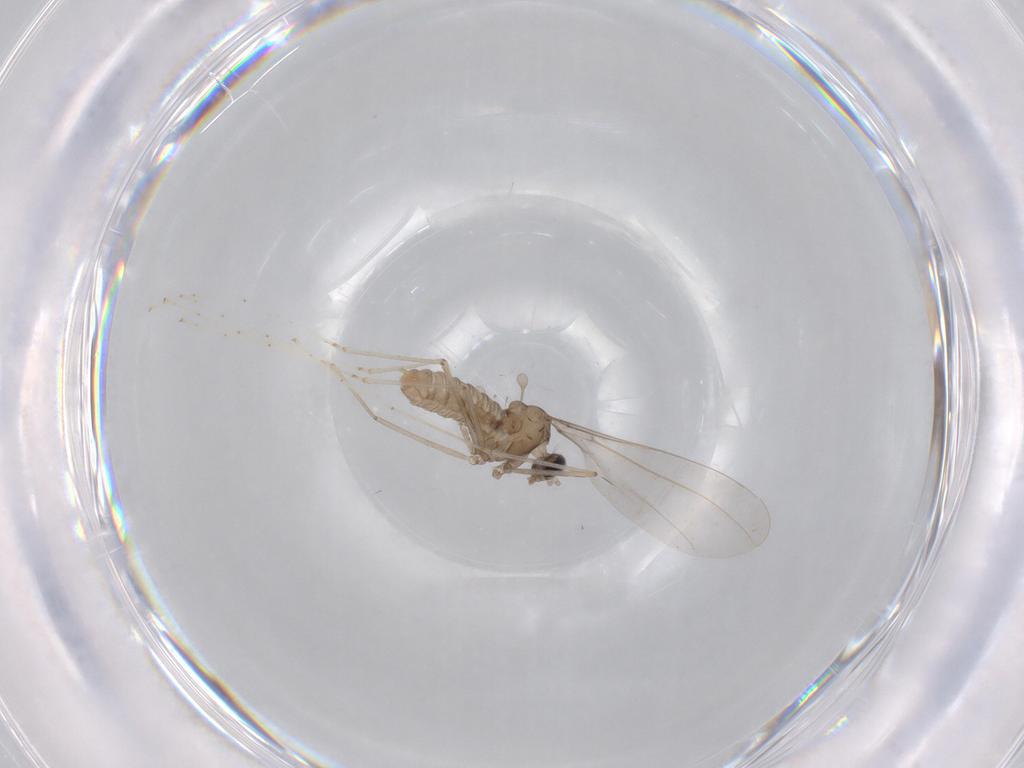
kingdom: Animalia
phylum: Arthropoda
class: Insecta
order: Diptera
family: Cecidomyiidae
